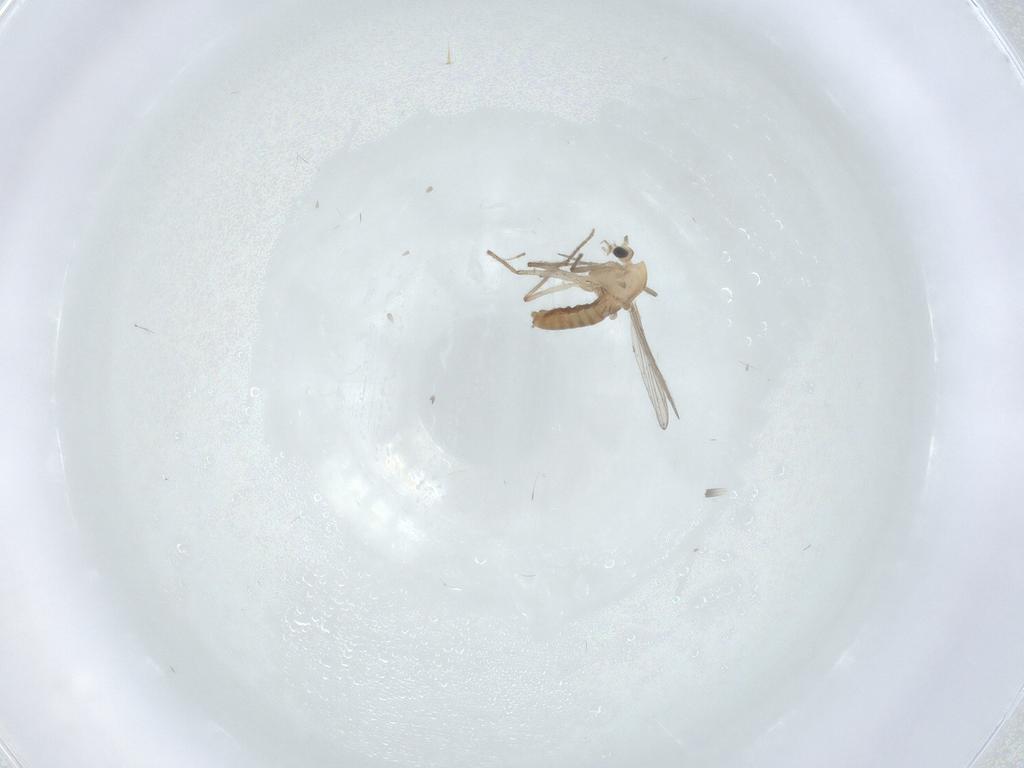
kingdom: Animalia
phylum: Arthropoda
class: Insecta
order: Diptera
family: Chironomidae
